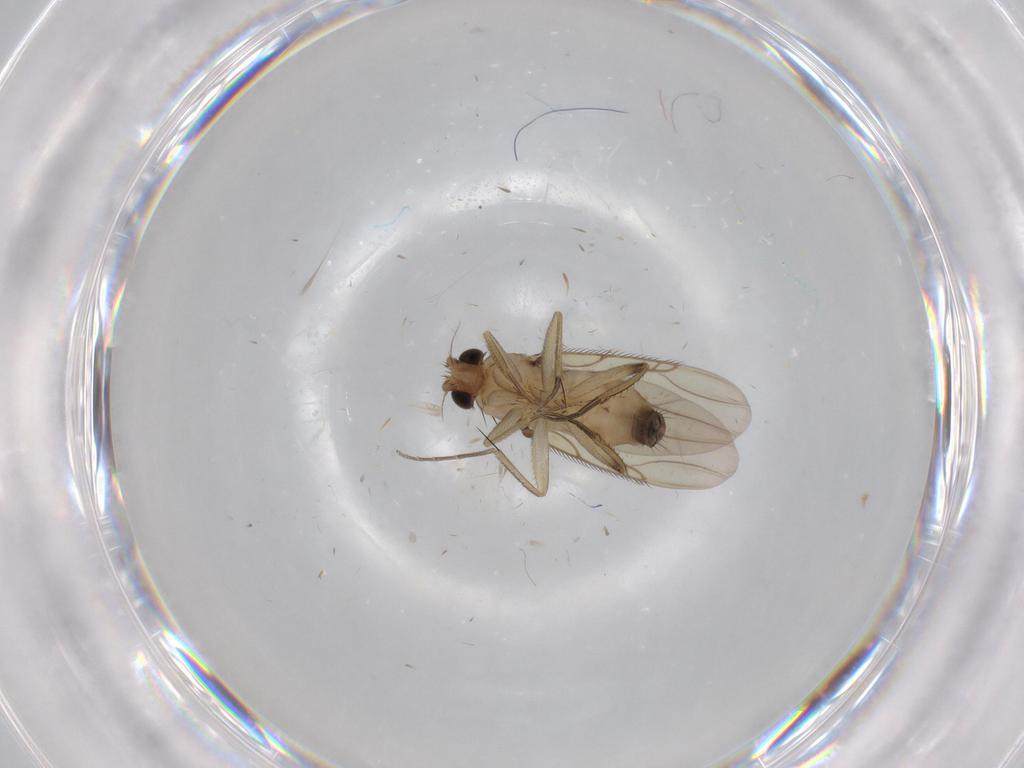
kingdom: Animalia
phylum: Arthropoda
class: Insecta
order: Diptera
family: Phoridae
